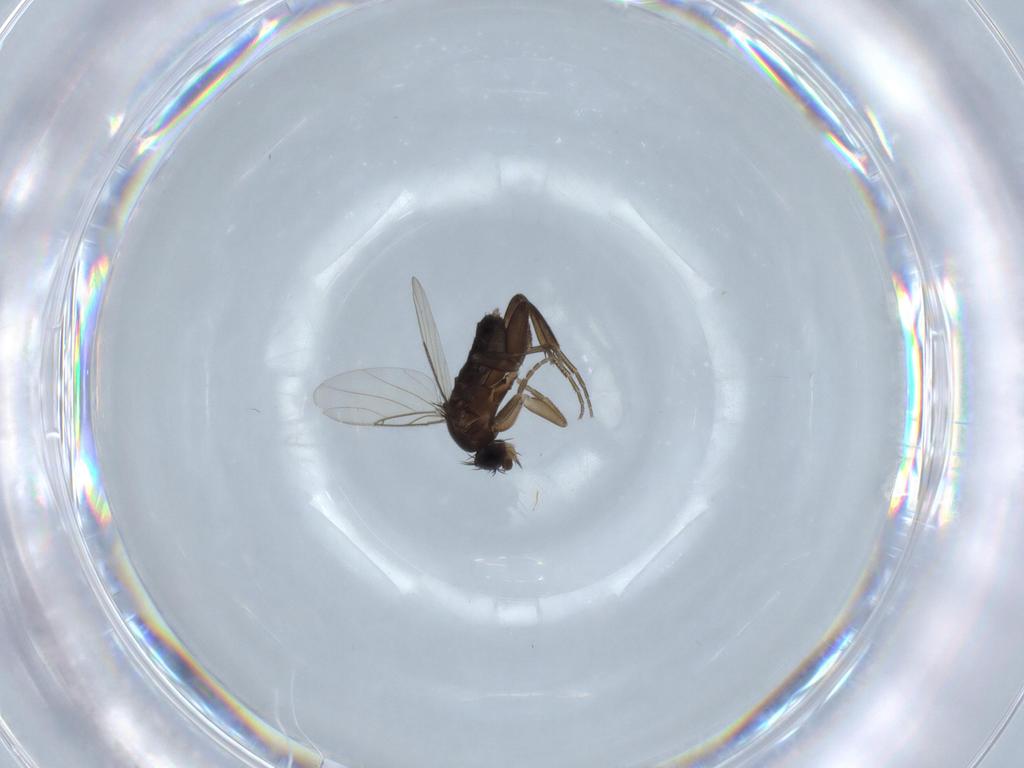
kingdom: Animalia
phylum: Arthropoda
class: Insecta
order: Diptera
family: Phoridae
